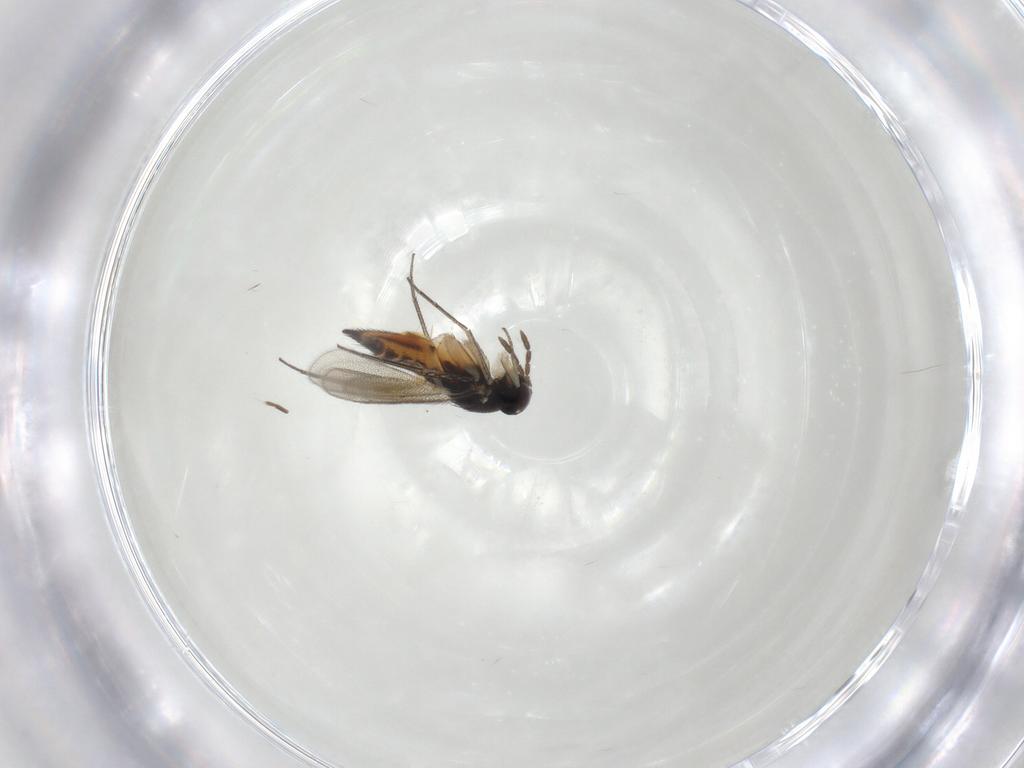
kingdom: Animalia
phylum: Arthropoda
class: Insecta
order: Hymenoptera
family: Eulophidae
